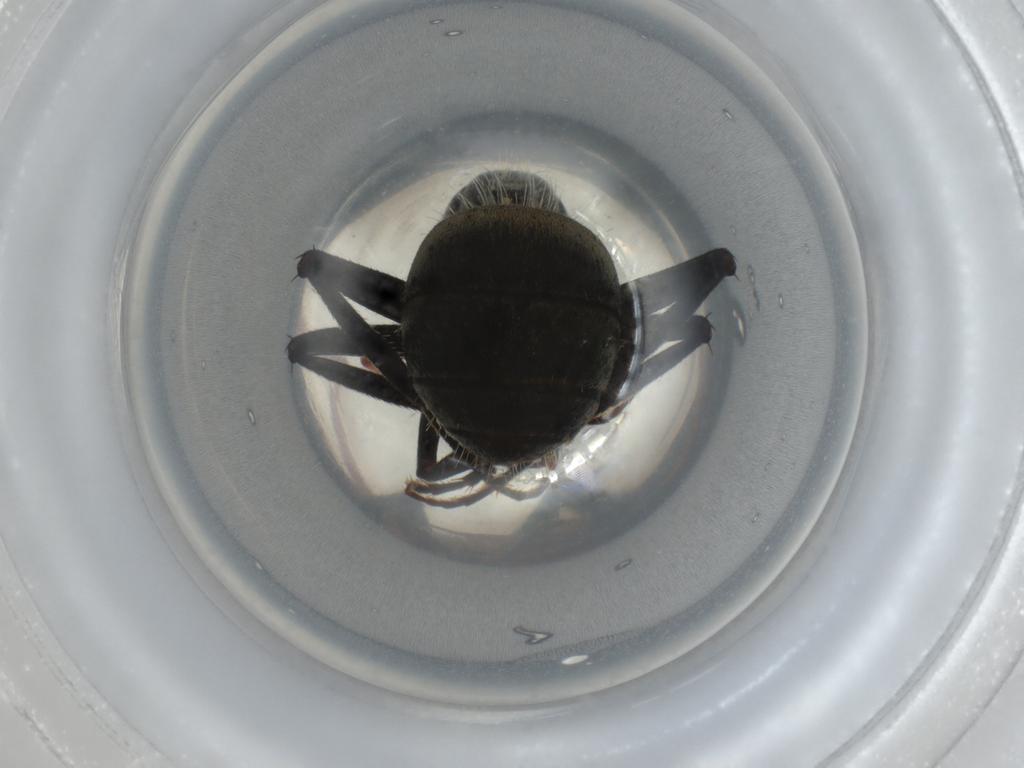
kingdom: Animalia
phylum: Arthropoda
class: Insecta
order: Hymenoptera
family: Formicidae
